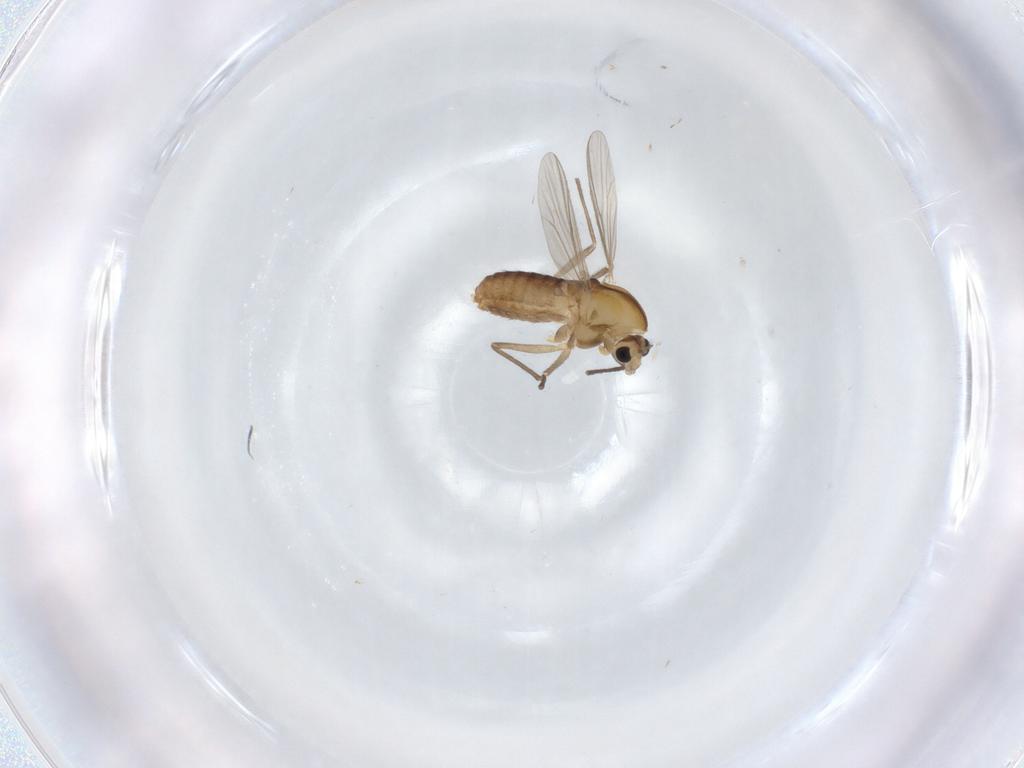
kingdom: Animalia
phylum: Arthropoda
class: Insecta
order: Diptera
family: Chironomidae
